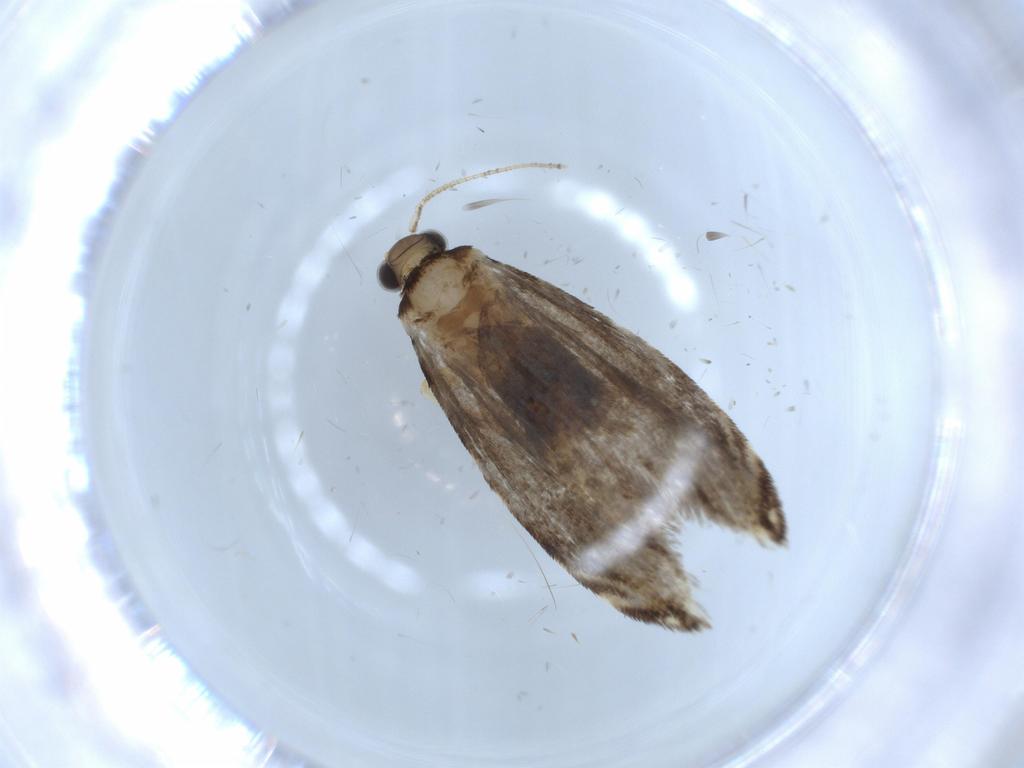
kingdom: Animalia
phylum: Arthropoda
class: Insecta
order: Lepidoptera
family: Tineidae
